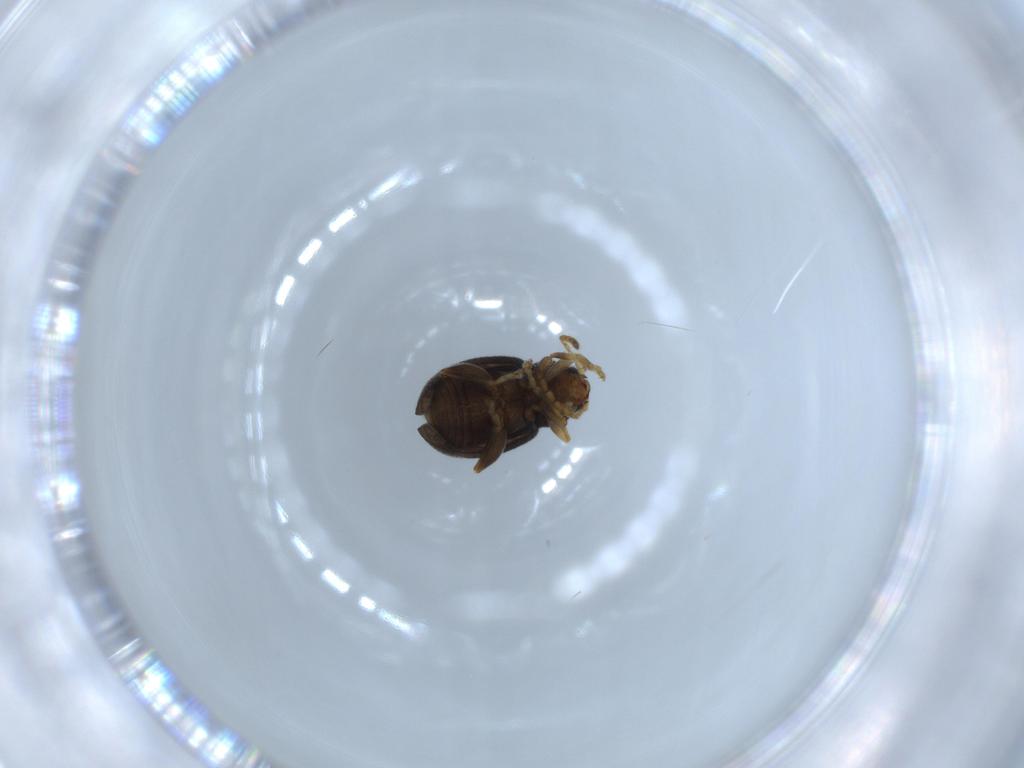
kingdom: Animalia
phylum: Arthropoda
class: Insecta
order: Coleoptera
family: Chrysomelidae
